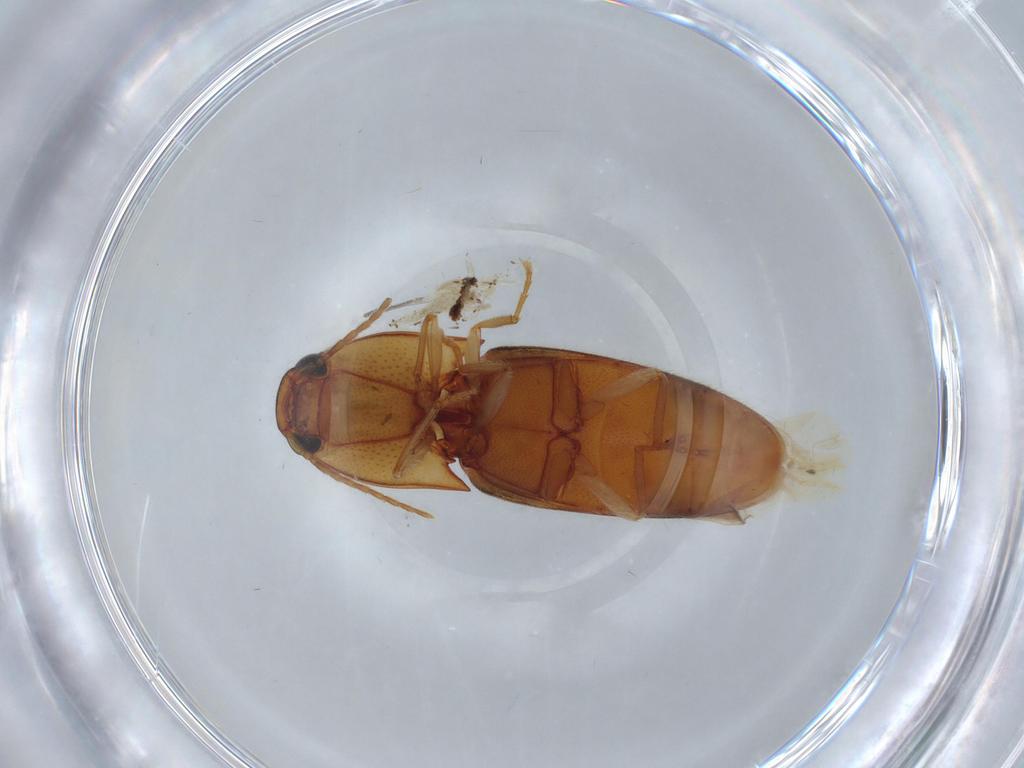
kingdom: Animalia
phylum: Arthropoda
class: Insecta
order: Coleoptera
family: Elateridae
